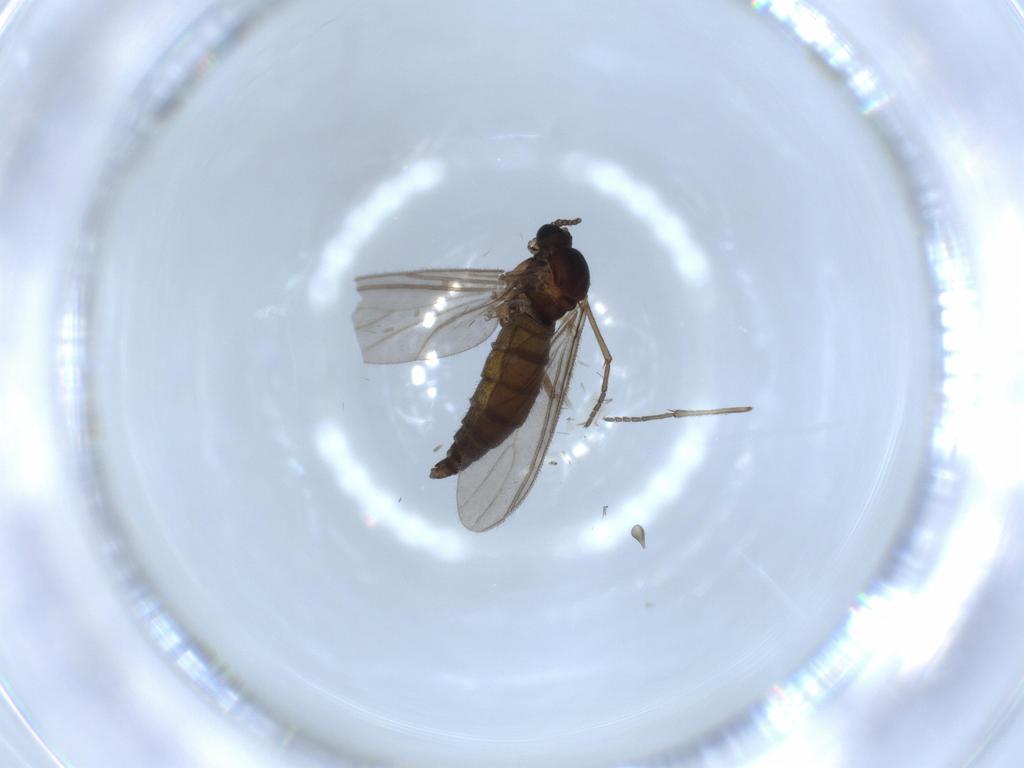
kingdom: Animalia
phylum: Arthropoda
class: Insecta
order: Diptera
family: Sciaridae
